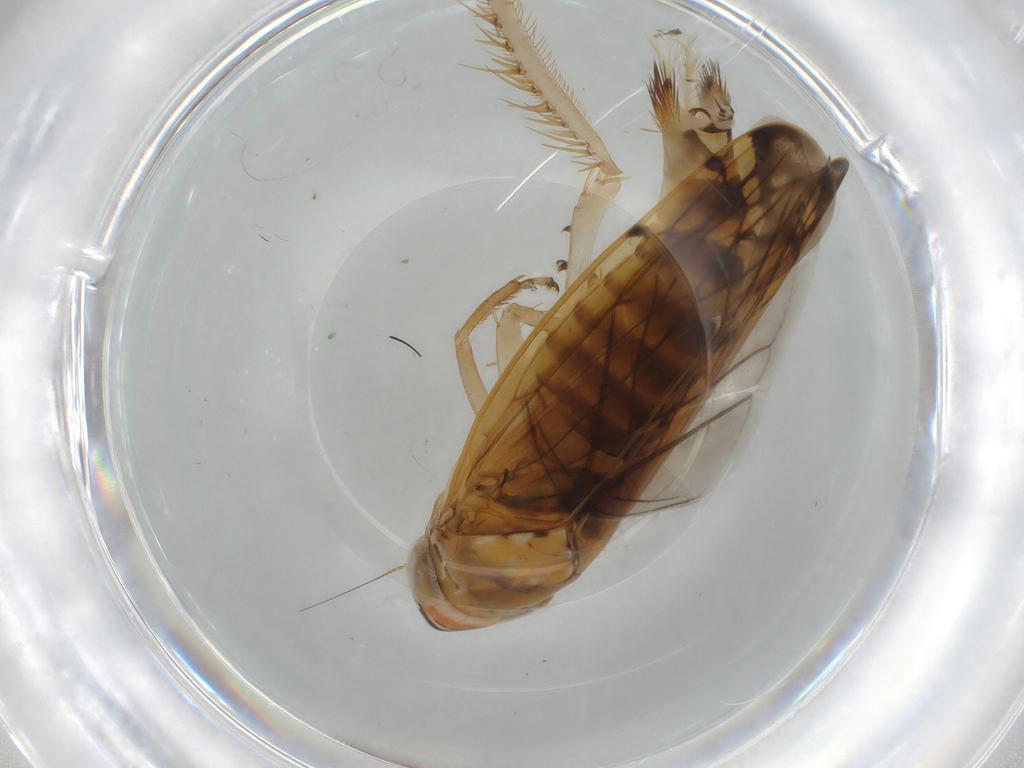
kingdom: Animalia
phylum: Arthropoda
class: Insecta
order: Hemiptera
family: Cicadellidae
